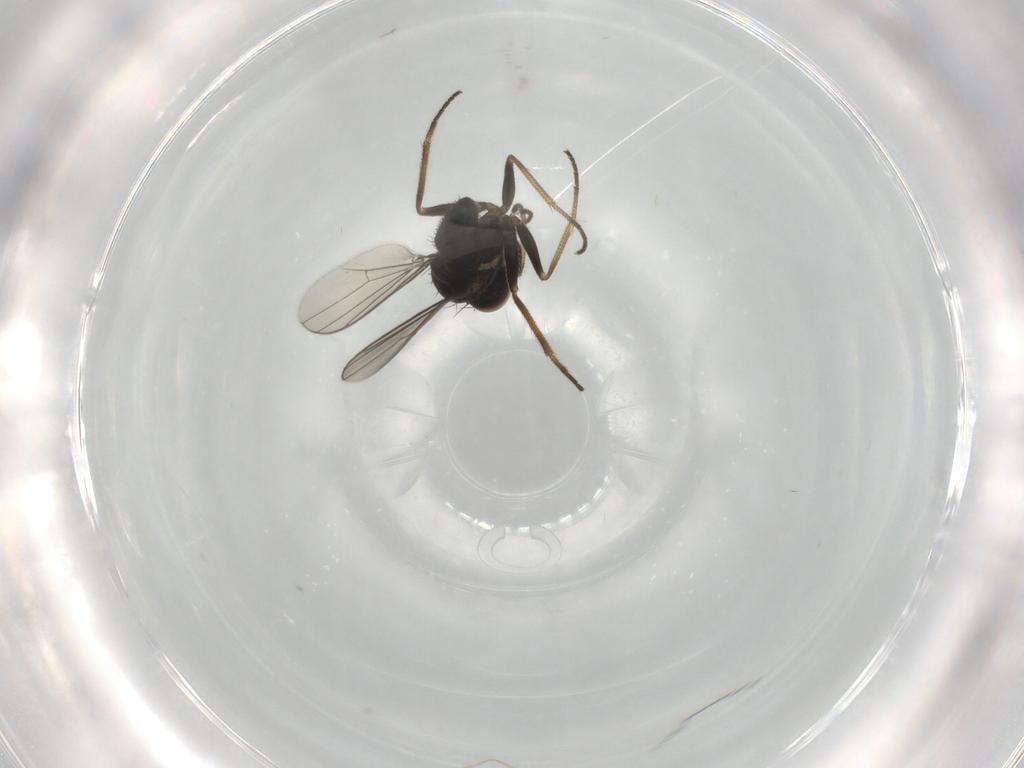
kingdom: Animalia
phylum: Arthropoda
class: Insecta
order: Diptera
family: Dolichopodidae
